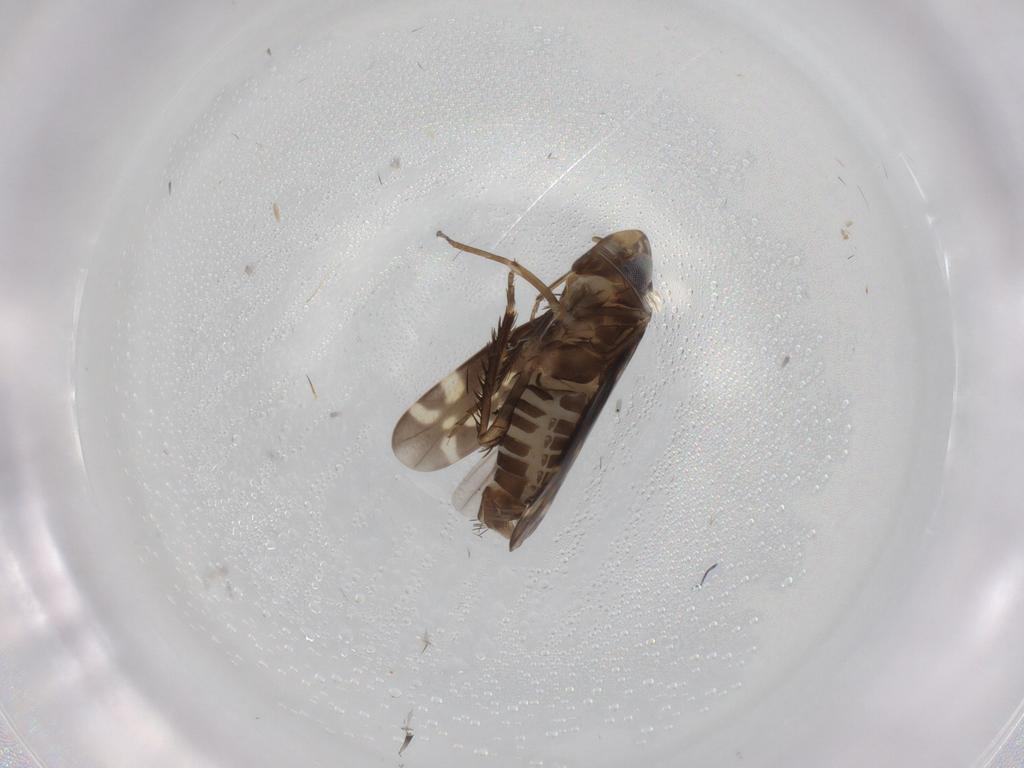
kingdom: Animalia
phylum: Arthropoda
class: Insecta
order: Hemiptera
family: Cicadellidae
